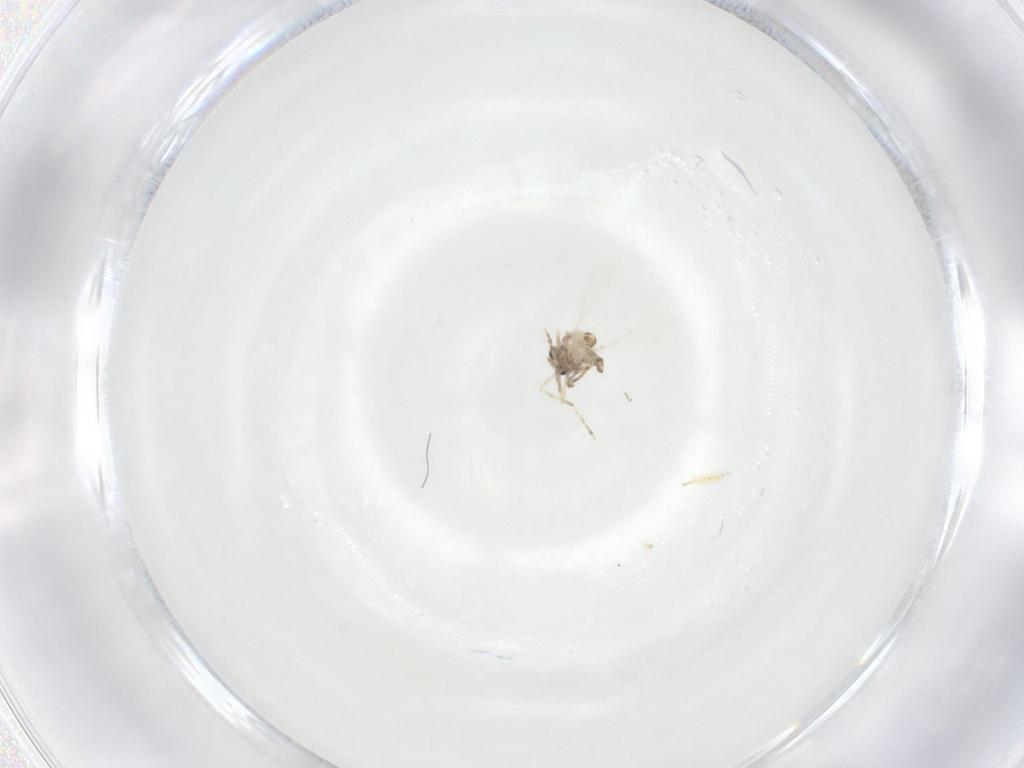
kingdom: Animalia
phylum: Arthropoda
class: Insecta
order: Diptera
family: Ceratopogonidae
